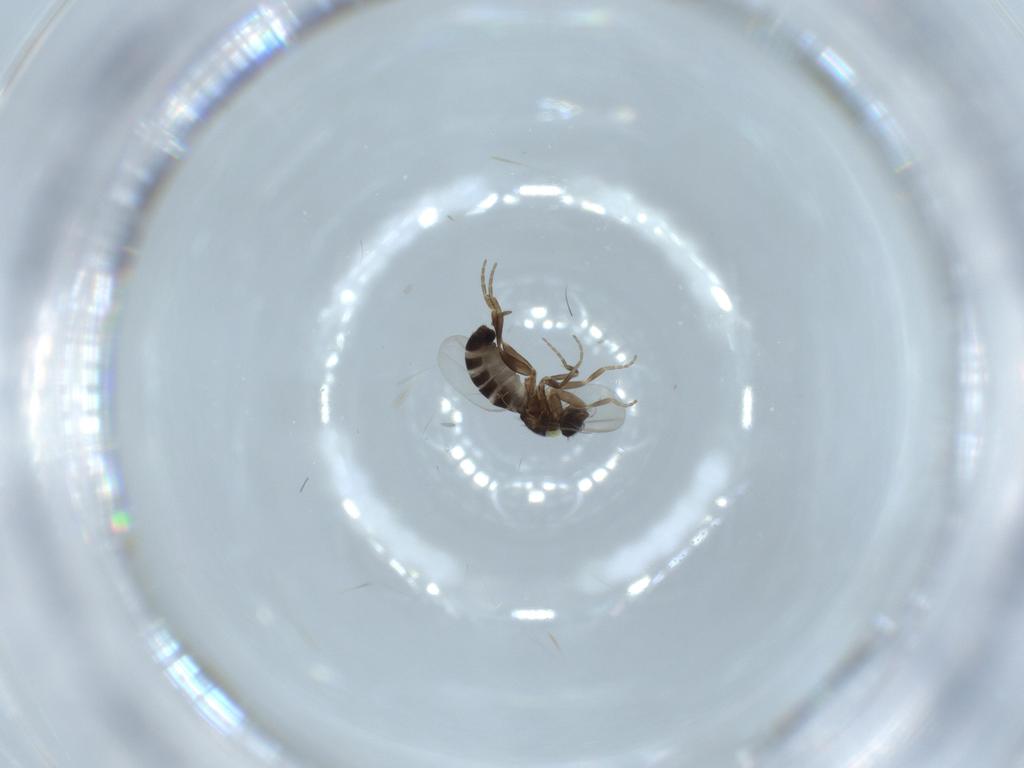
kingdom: Animalia
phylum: Arthropoda
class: Insecta
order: Diptera
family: Phoridae
